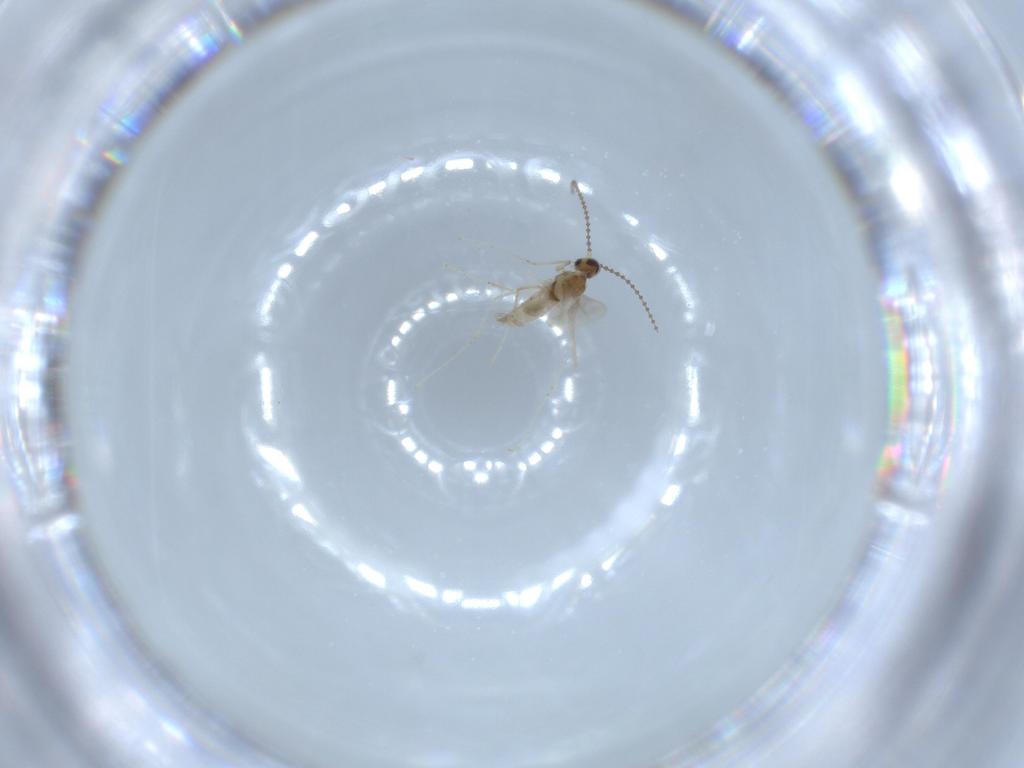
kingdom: Animalia
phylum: Arthropoda
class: Insecta
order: Diptera
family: Cecidomyiidae
